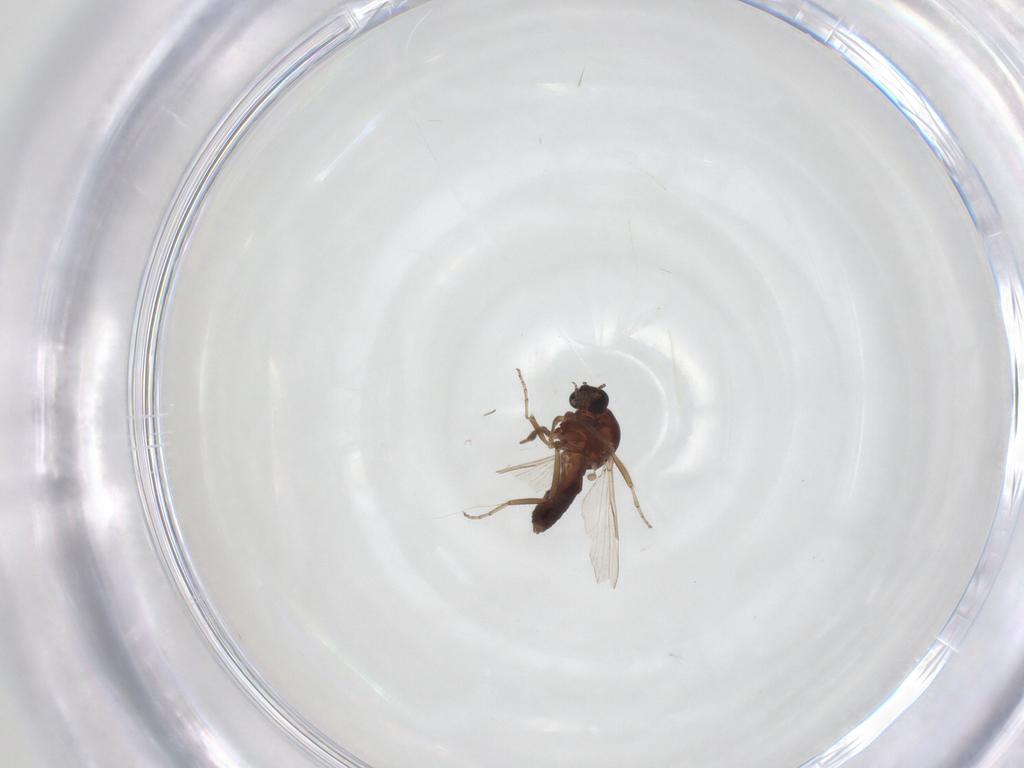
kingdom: Animalia
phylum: Arthropoda
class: Insecta
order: Diptera
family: Ceratopogonidae
